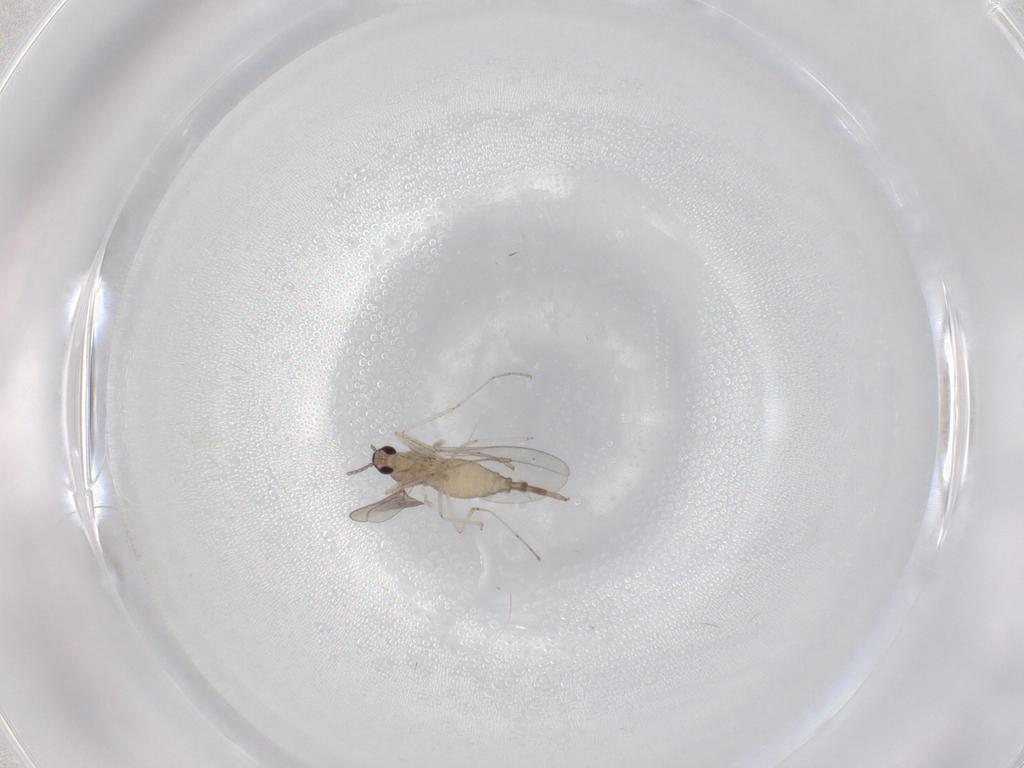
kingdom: Animalia
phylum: Arthropoda
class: Insecta
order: Diptera
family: Cecidomyiidae
